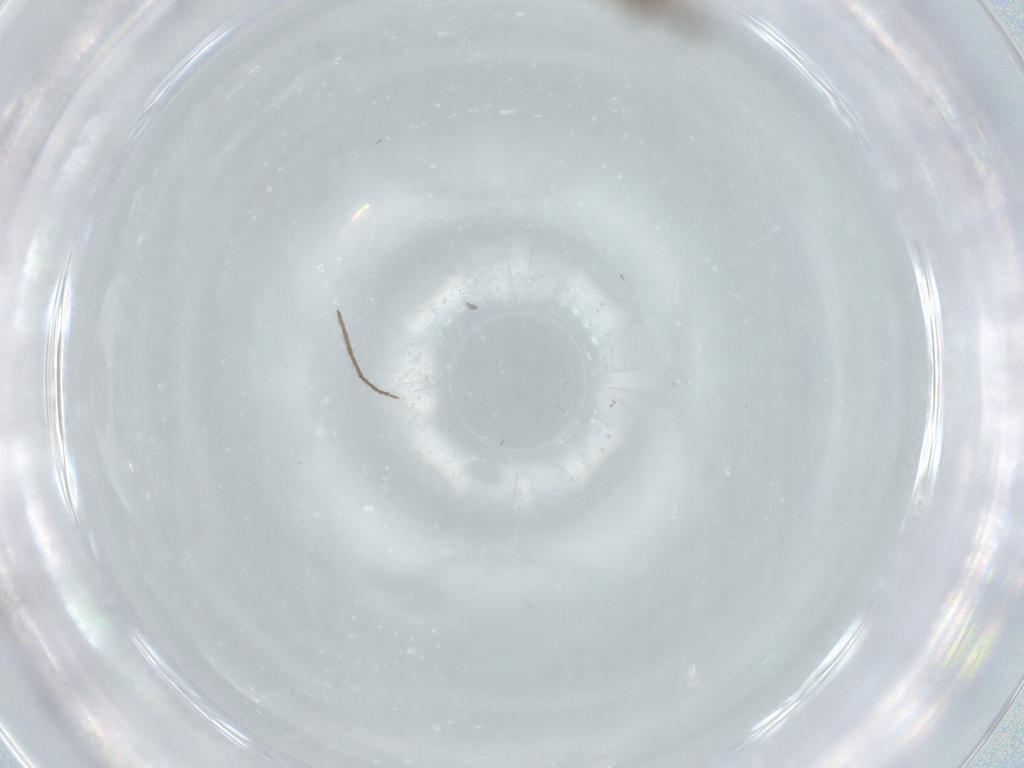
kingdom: Animalia
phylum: Arthropoda
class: Insecta
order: Diptera
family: Chironomidae
